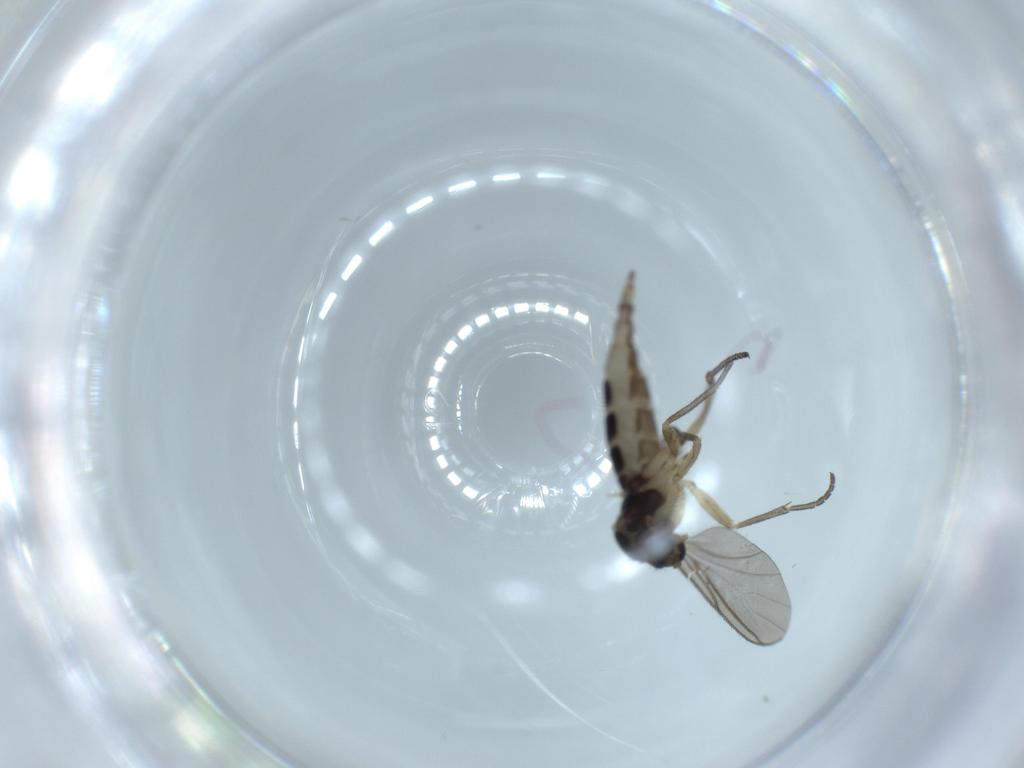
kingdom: Animalia
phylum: Arthropoda
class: Insecta
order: Diptera
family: Sciaridae
